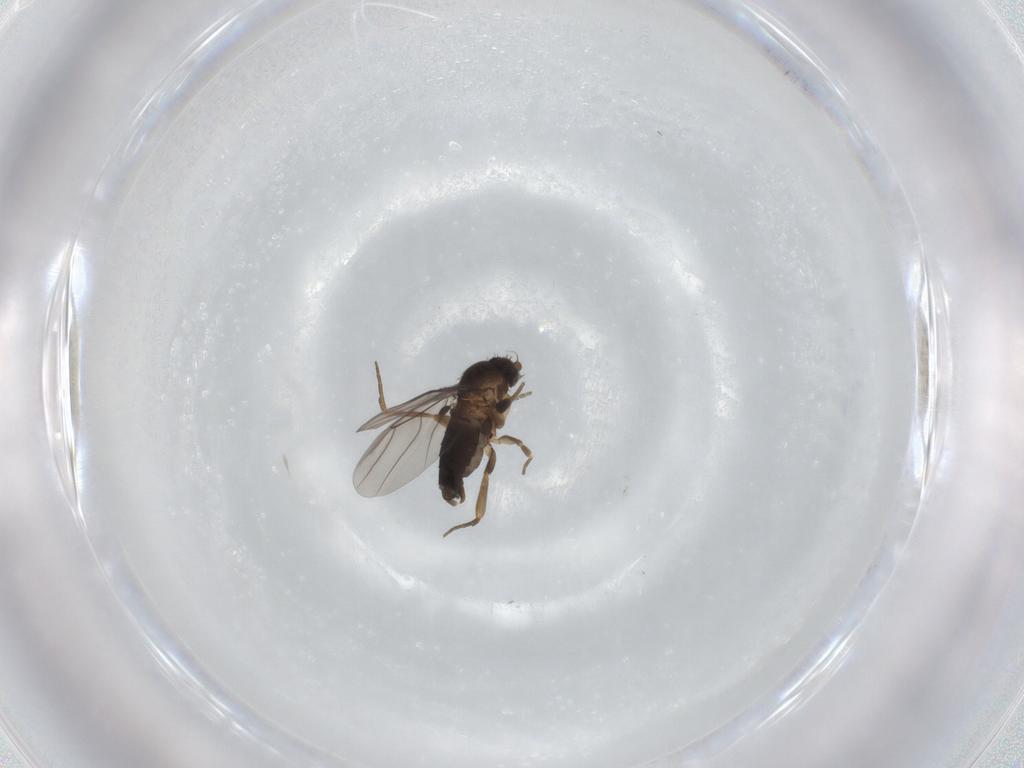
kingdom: Animalia
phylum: Arthropoda
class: Insecta
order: Diptera
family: Phoridae
